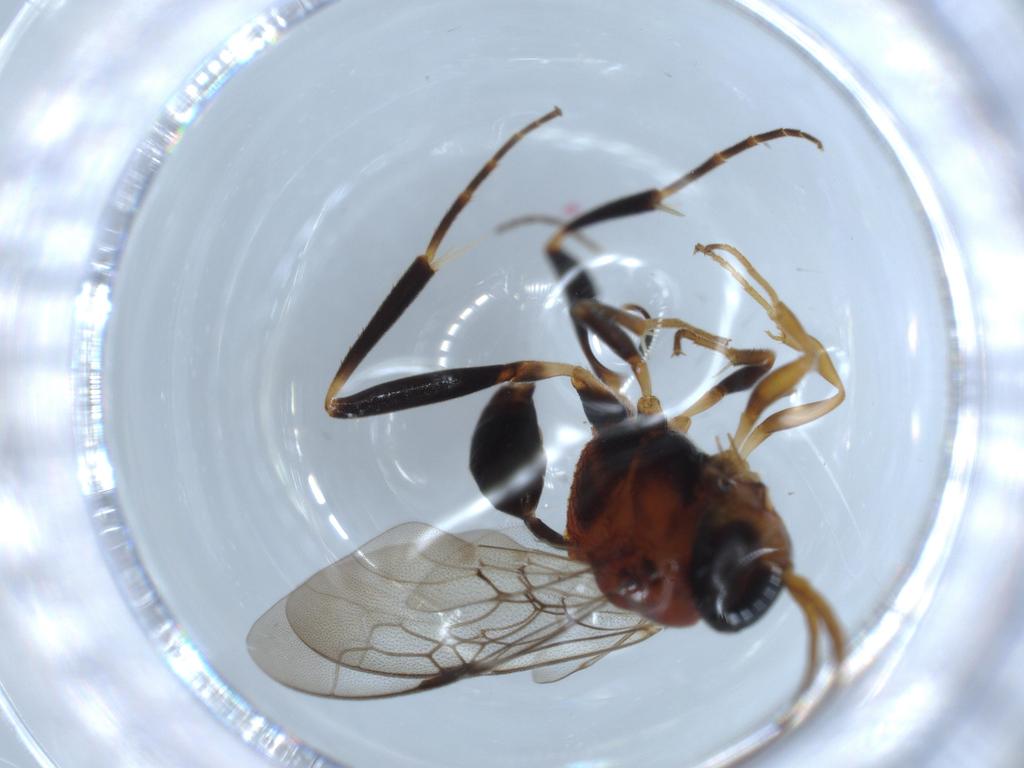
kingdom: Animalia
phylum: Arthropoda
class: Insecta
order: Hymenoptera
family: Evaniidae
